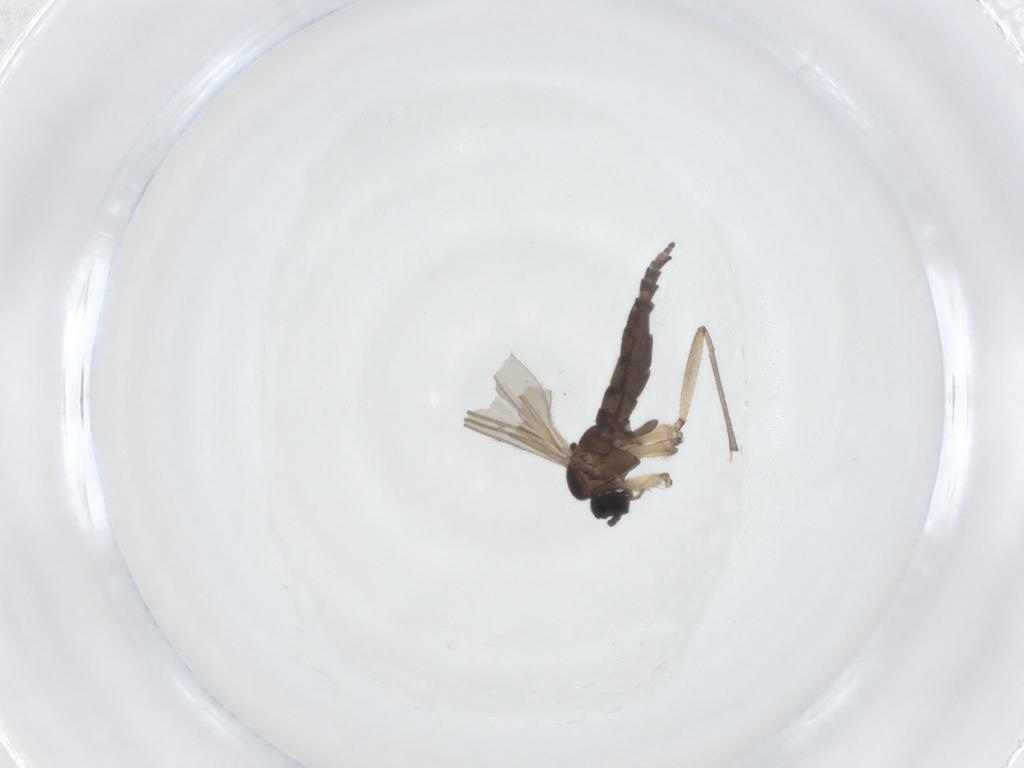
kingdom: Animalia
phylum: Arthropoda
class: Insecta
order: Diptera
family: Sciaridae
